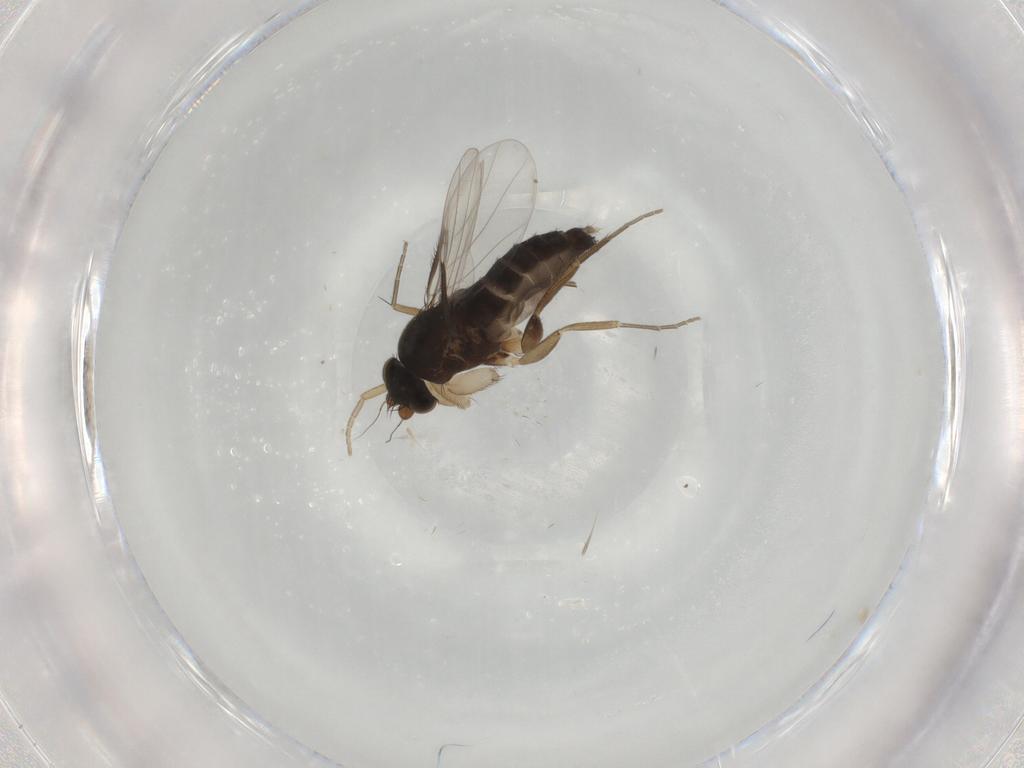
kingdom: Animalia
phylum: Arthropoda
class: Insecta
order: Diptera
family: Phoridae
